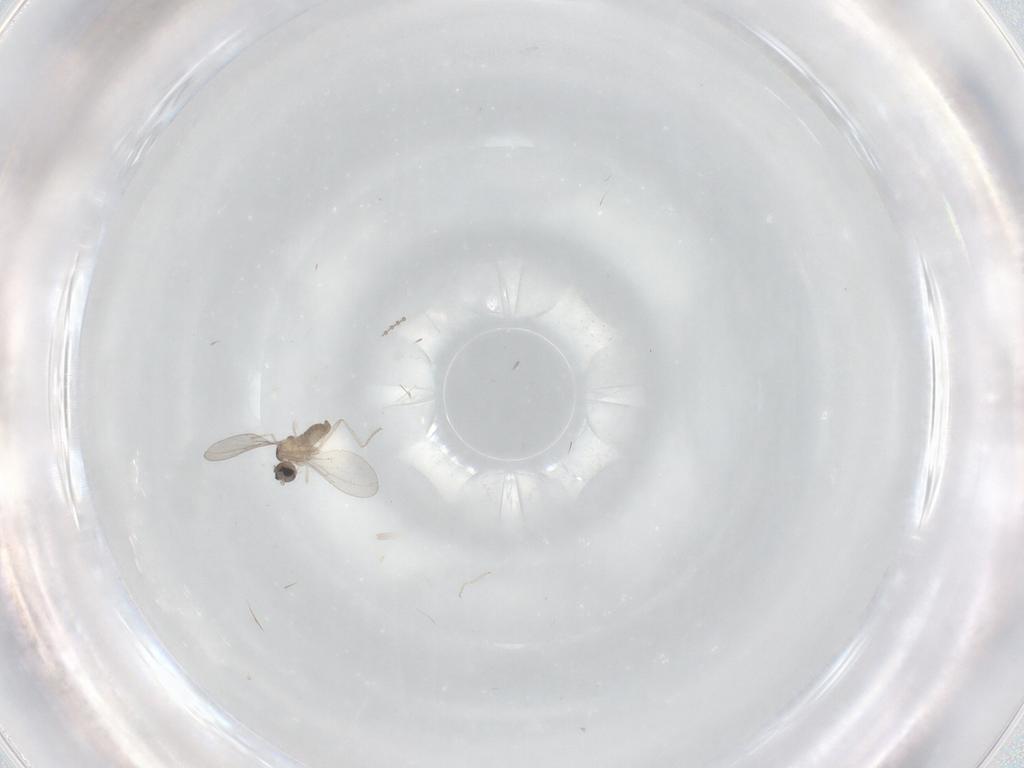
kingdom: Animalia
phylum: Arthropoda
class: Insecta
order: Diptera
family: Cecidomyiidae
